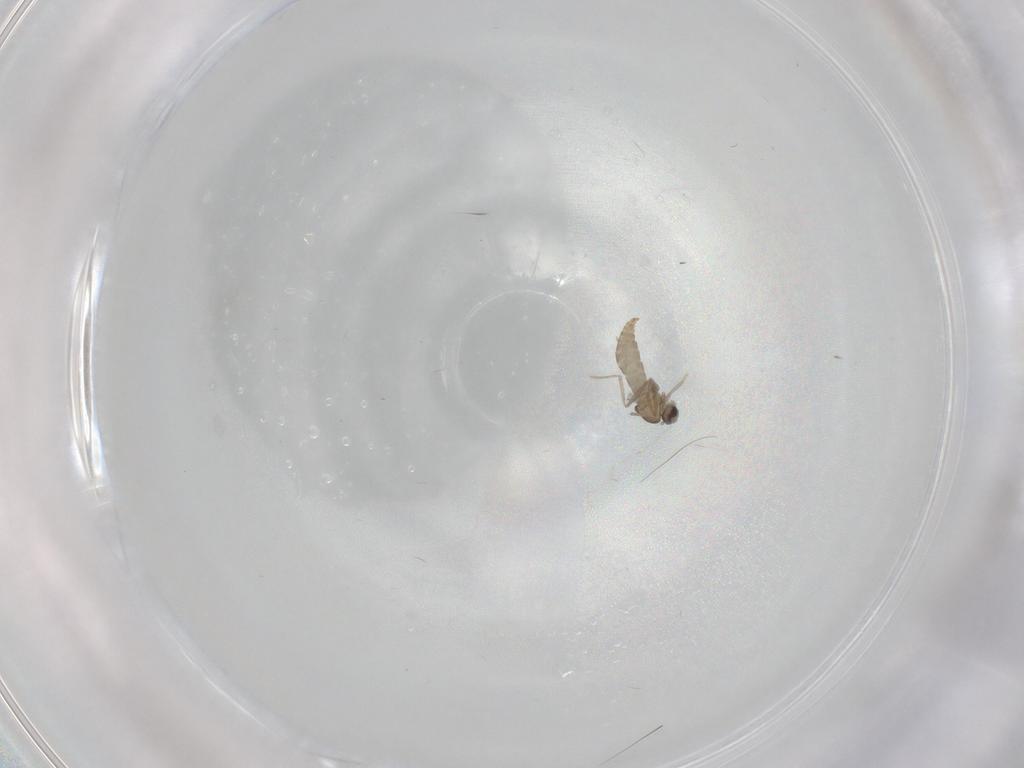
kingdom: Animalia
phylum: Arthropoda
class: Insecta
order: Diptera
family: Cecidomyiidae
